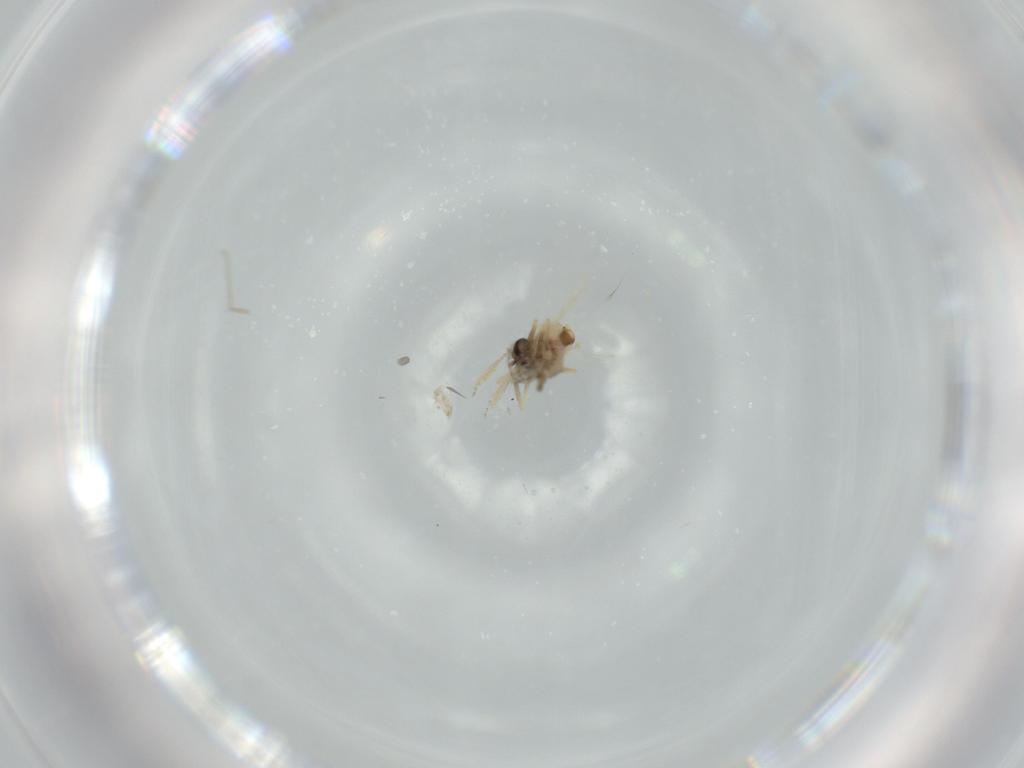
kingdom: Animalia
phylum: Arthropoda
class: Insecta
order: Diptera
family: Ceratopogonidae
